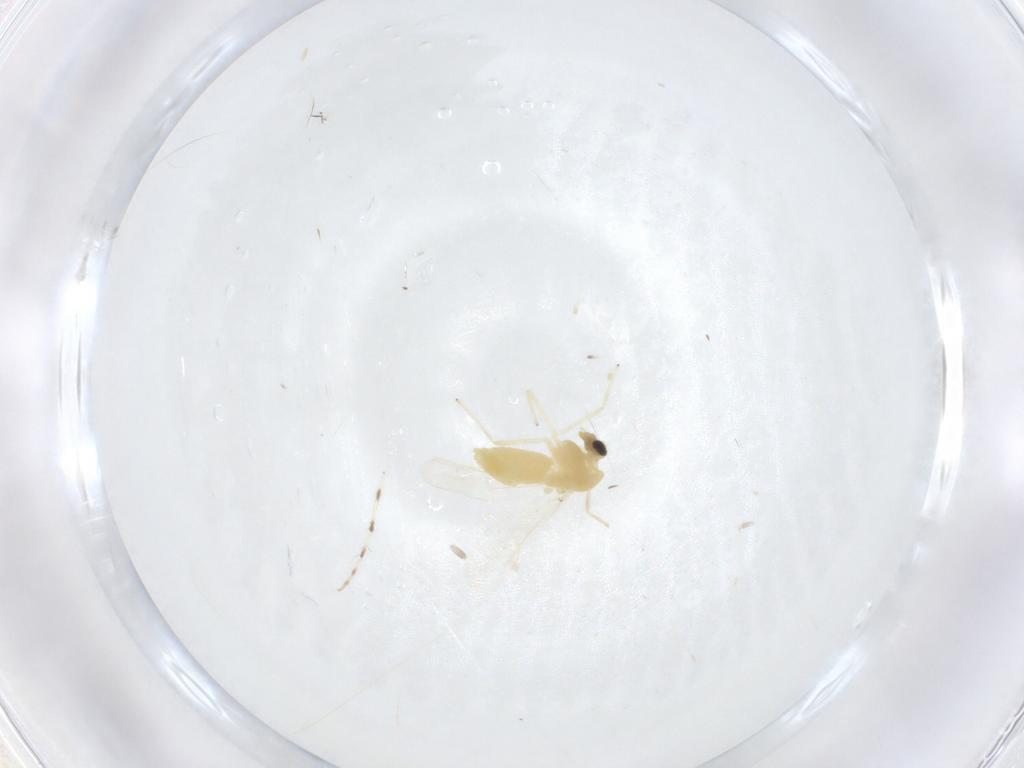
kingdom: Animalia
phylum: Arthropoda
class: Insecta
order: Diptera
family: Chironomidae
